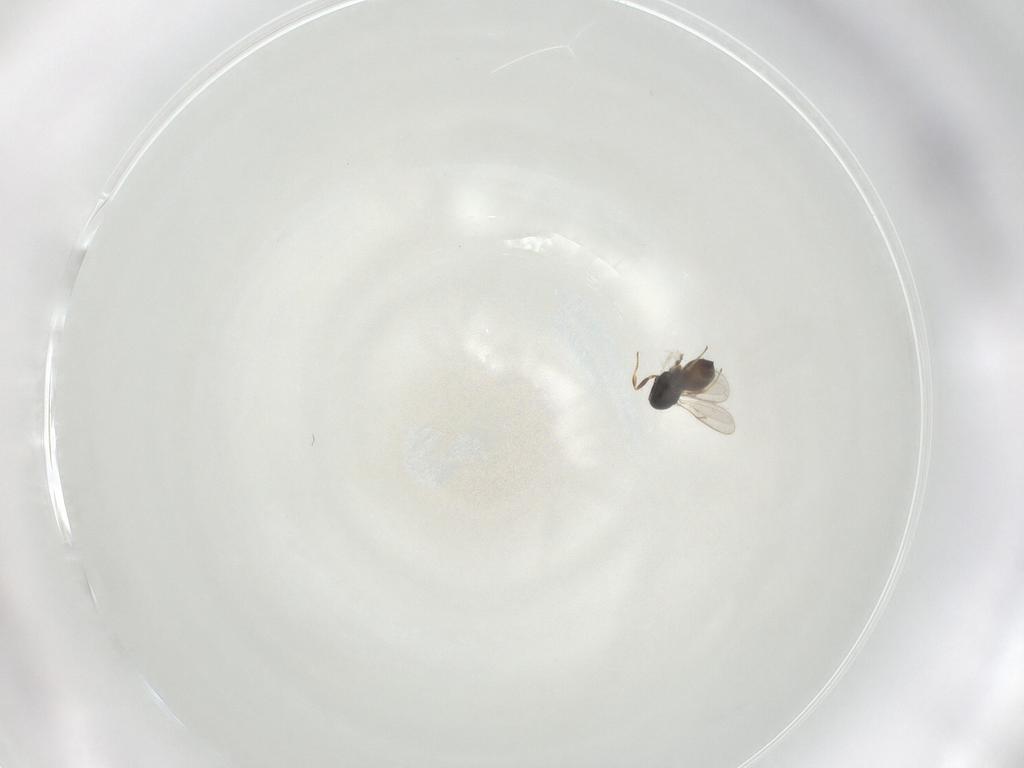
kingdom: Animalia
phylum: Arthropoda
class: Insecta
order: Hymenoptera
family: Scelionidae
